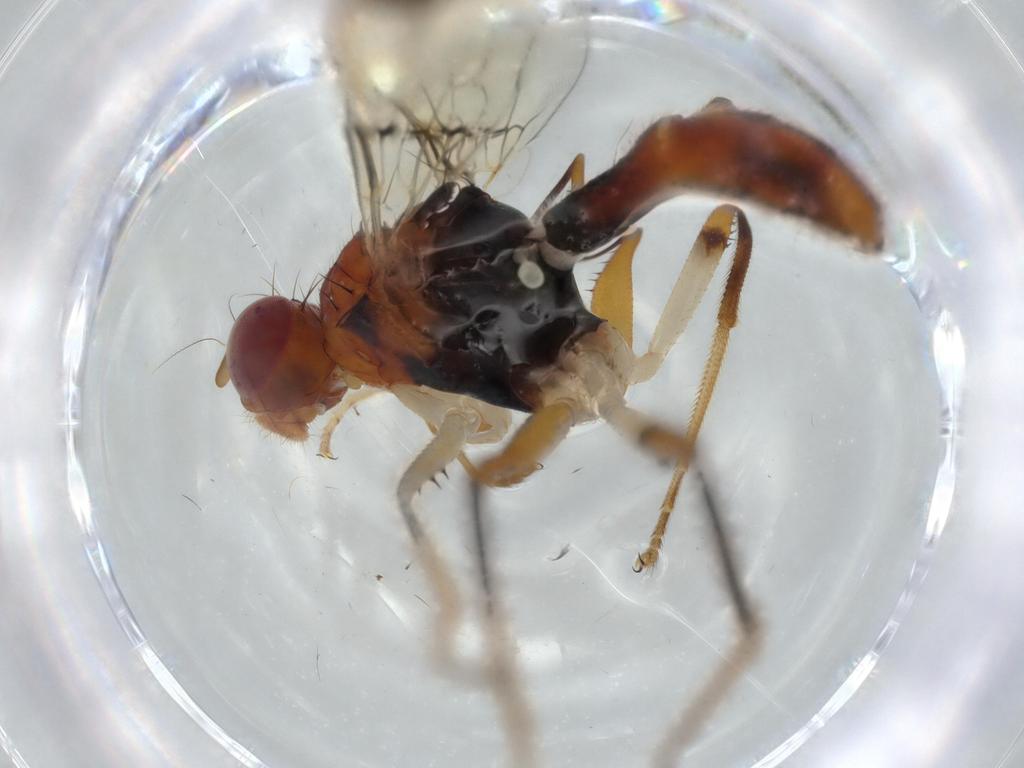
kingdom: Animalia
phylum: Arthropoda
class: Insecta
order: Diptera
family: Richardiidae
